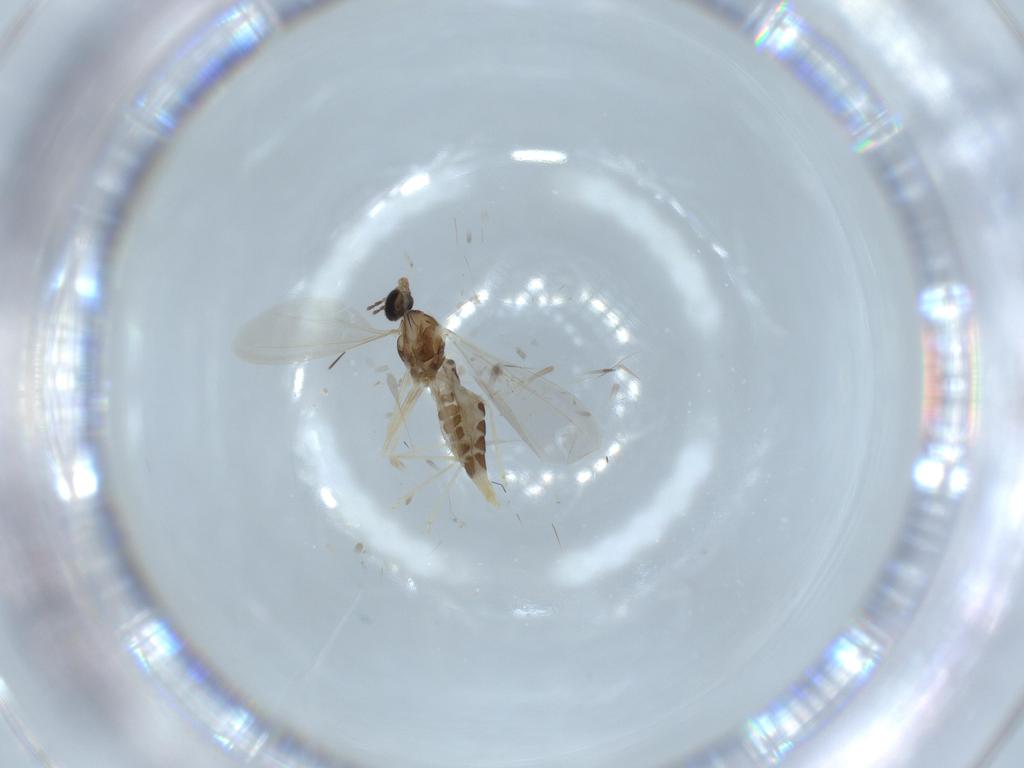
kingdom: Animalia
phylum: Arthropoda
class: Insecta
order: Diptera
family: Cecidomyiidae
